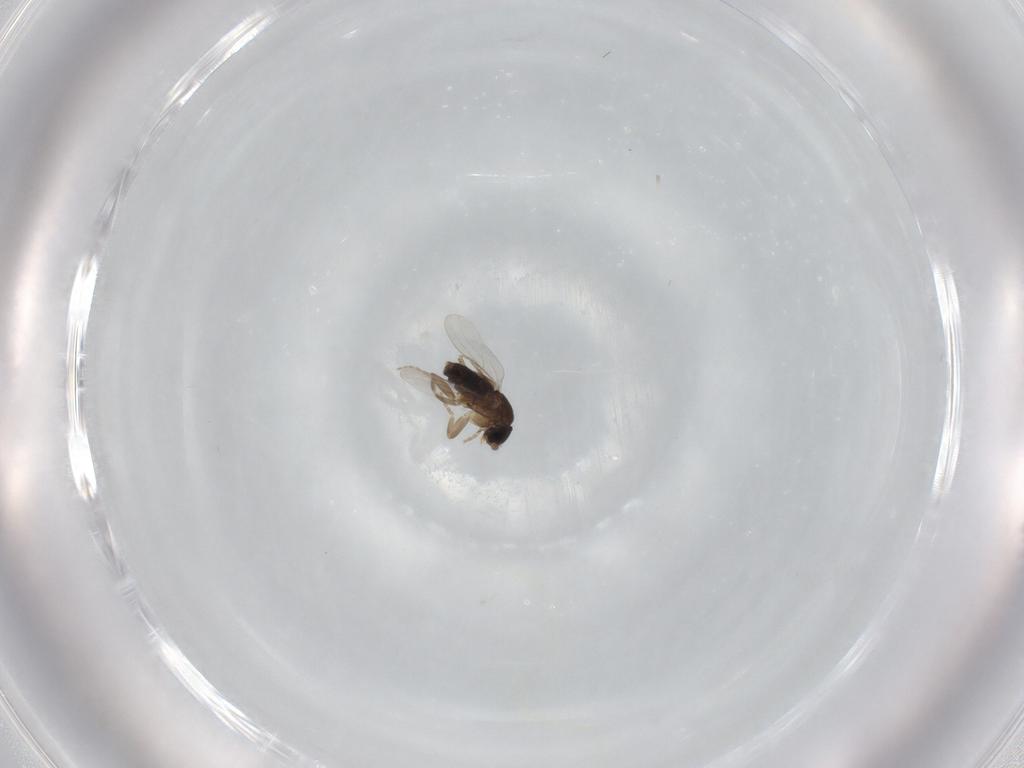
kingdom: Animalia
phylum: Arthropoda
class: Insecta
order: Diptera
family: Phoridae
